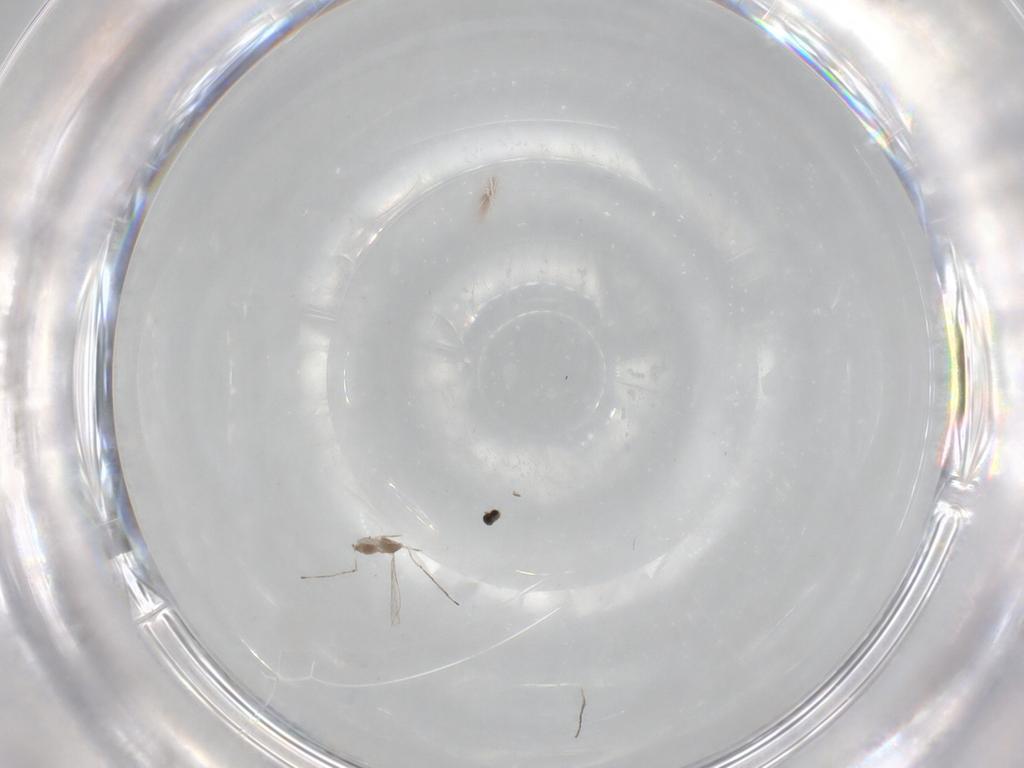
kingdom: Animalia
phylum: Arthropoda
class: Insecta
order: Diptera
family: Cecidomyiidae
